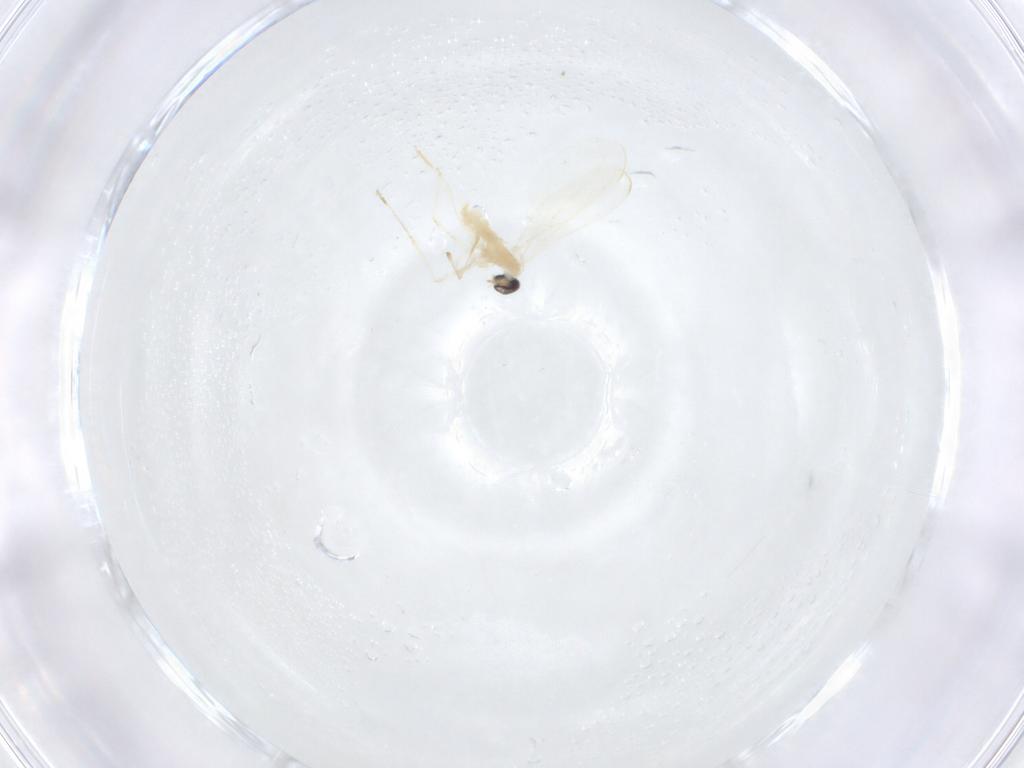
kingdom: Animalia
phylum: Arthropoda
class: Insecta
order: Diptera
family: Cecidomyiidae
